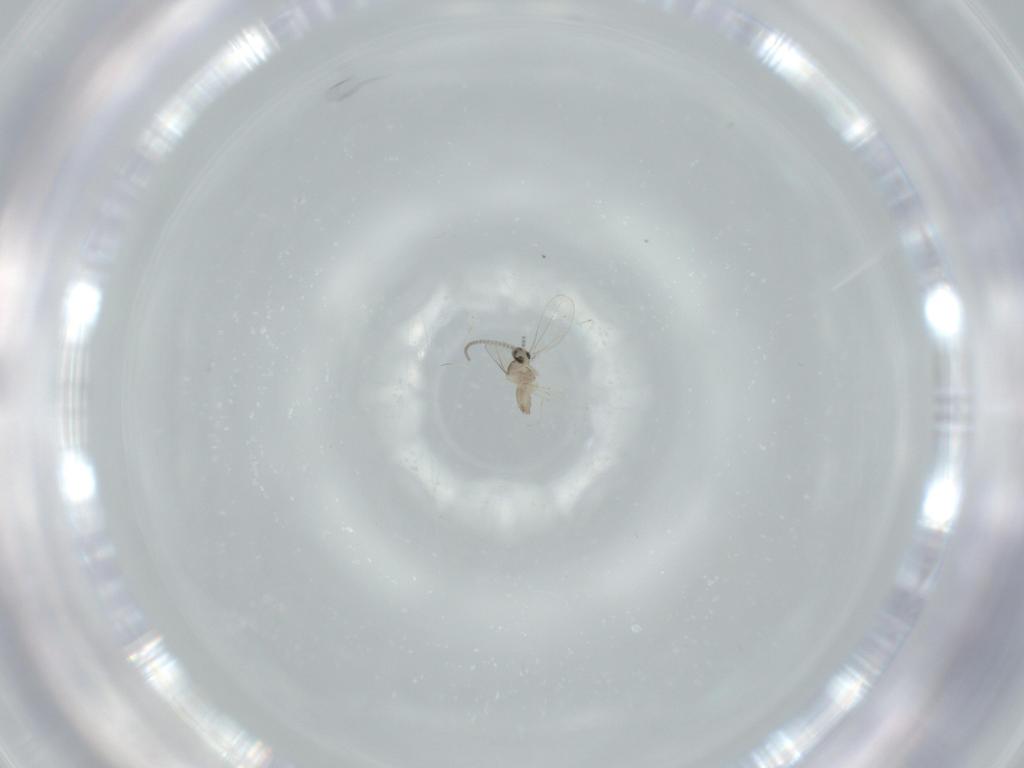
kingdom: Animalia
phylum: Arthropoda
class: Insecta
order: Diptera
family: Cecidomyiidae
